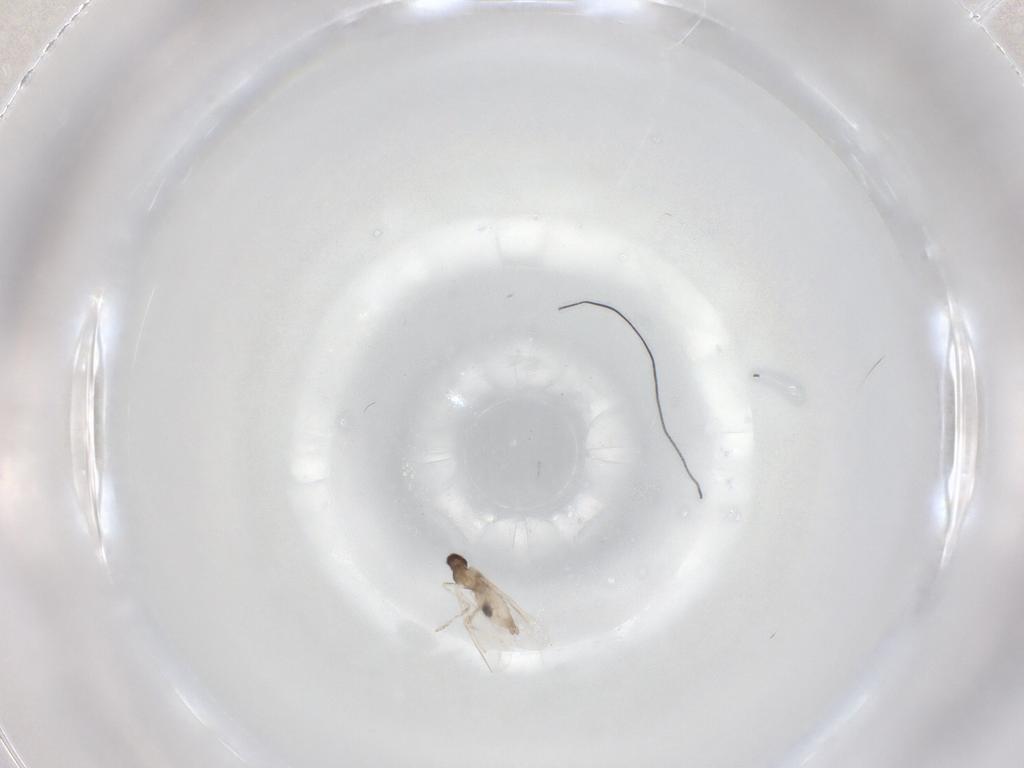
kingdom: Animalia
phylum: Arthropoda
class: Insecta
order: Diptera
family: Cecidomyiidae
